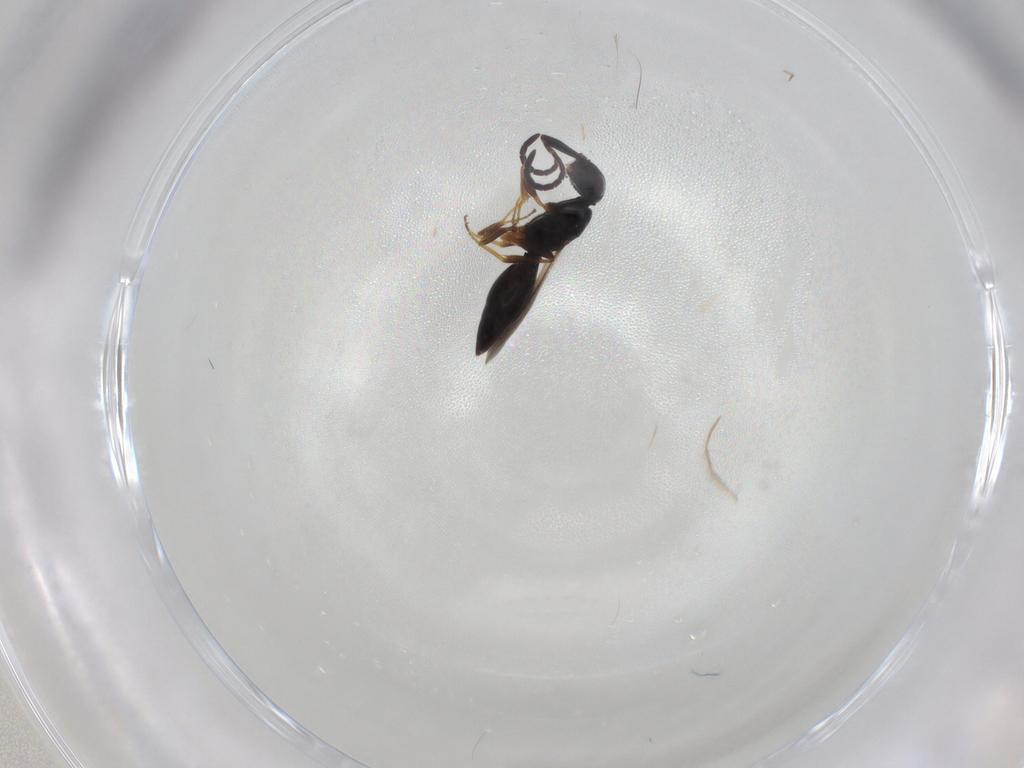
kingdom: Animalia
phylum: Arthropoda
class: Insecta
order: Hymenoptera
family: Megaspilidae
